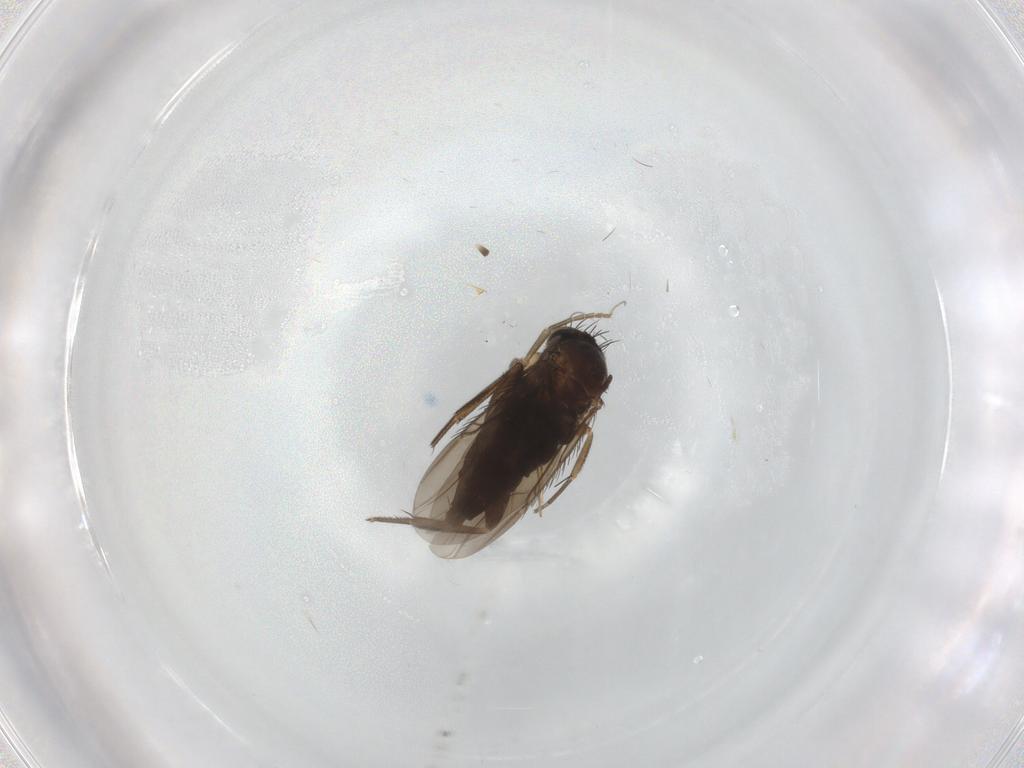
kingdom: Animalia
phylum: Arthropoda
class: Insecta
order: Diptera
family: Phoridae
